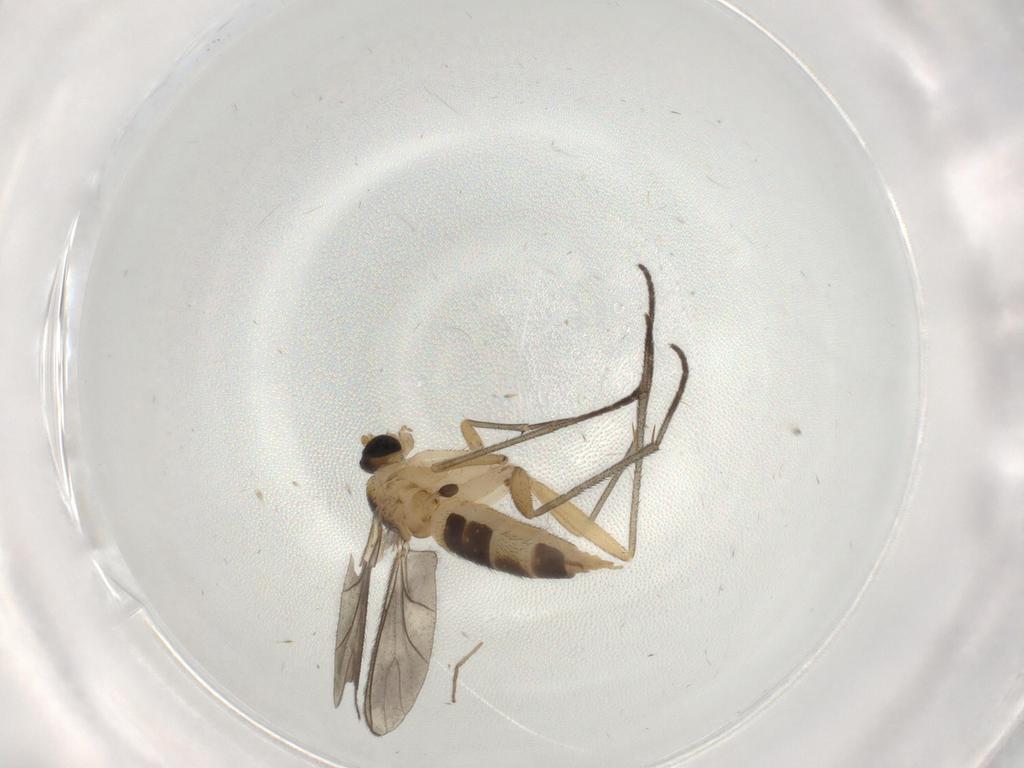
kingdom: Animalia
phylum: Arthropoda
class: Insecta
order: Diptera
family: Sciaridae
